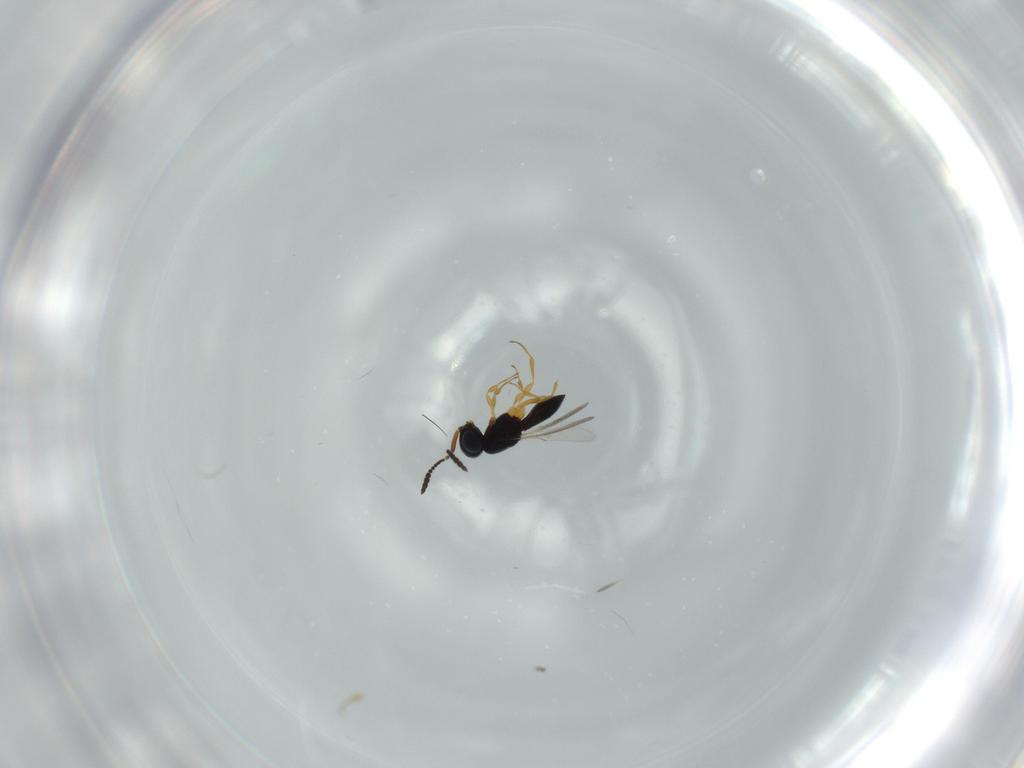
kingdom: Animalia
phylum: Arthropoda
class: Insecta
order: Hymenoptera
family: Scelionidae
